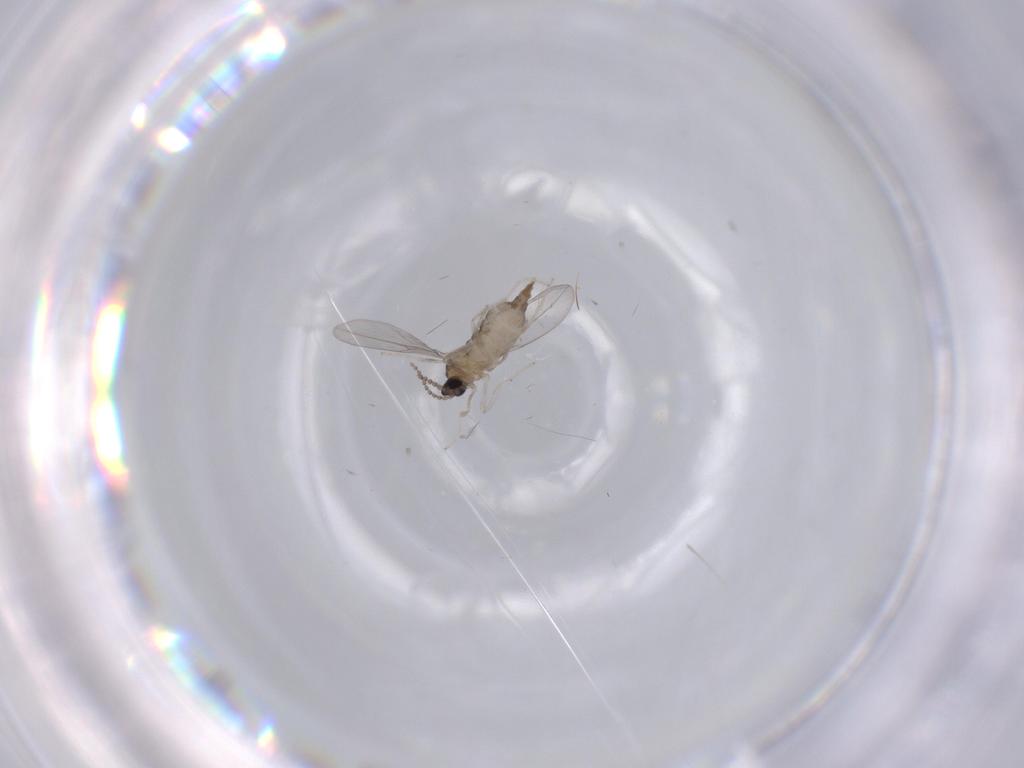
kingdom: Animalia
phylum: Arthropoda
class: Insecta
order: Diptera
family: Cecidomyiidae
